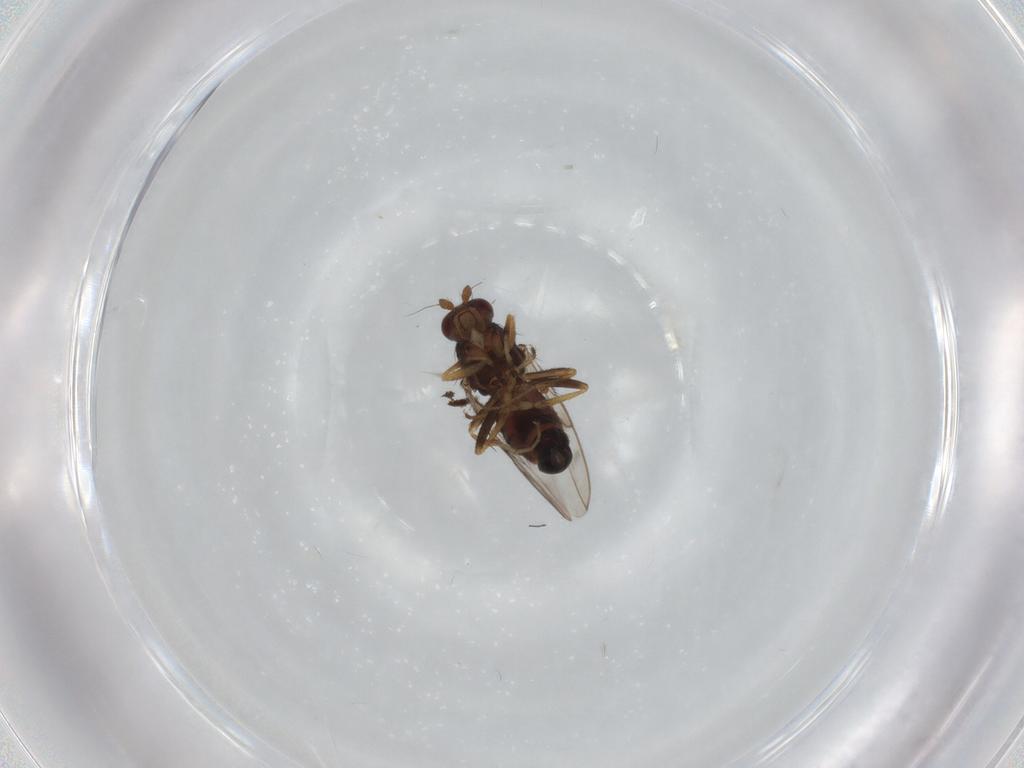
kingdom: Animalia
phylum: Arthropoda
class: Insecta
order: Diptera
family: Sphaeroceridae
